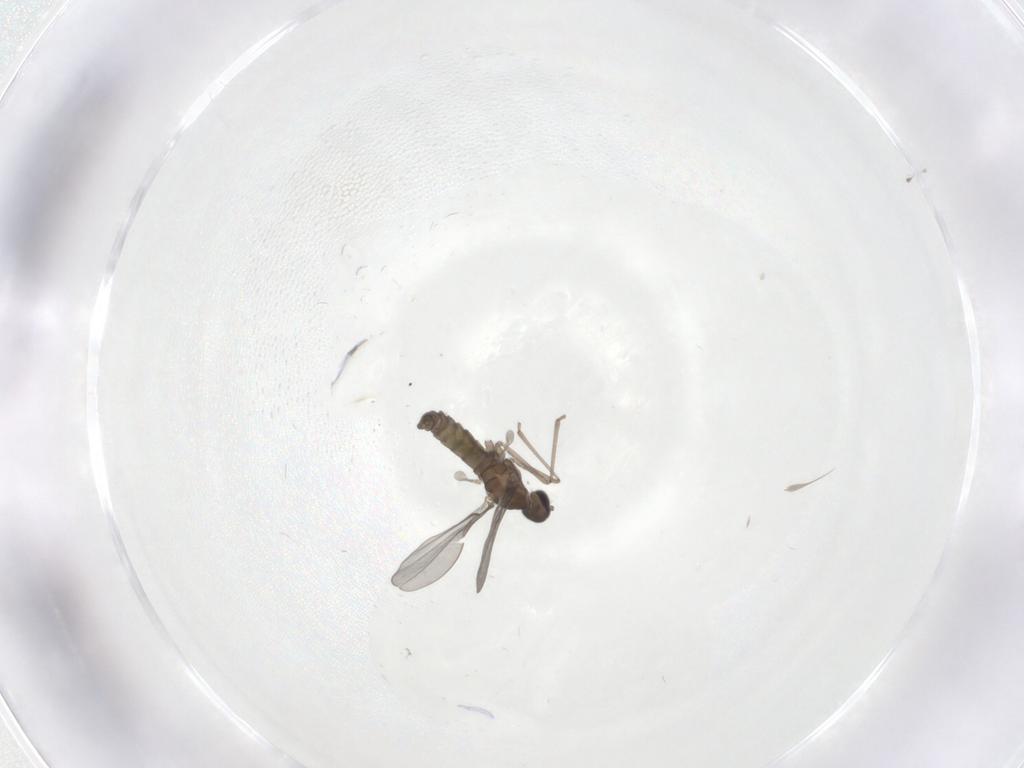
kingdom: Animalia
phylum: Arthropoda
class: Insecta
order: Diptera
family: Cecidomyiidae
